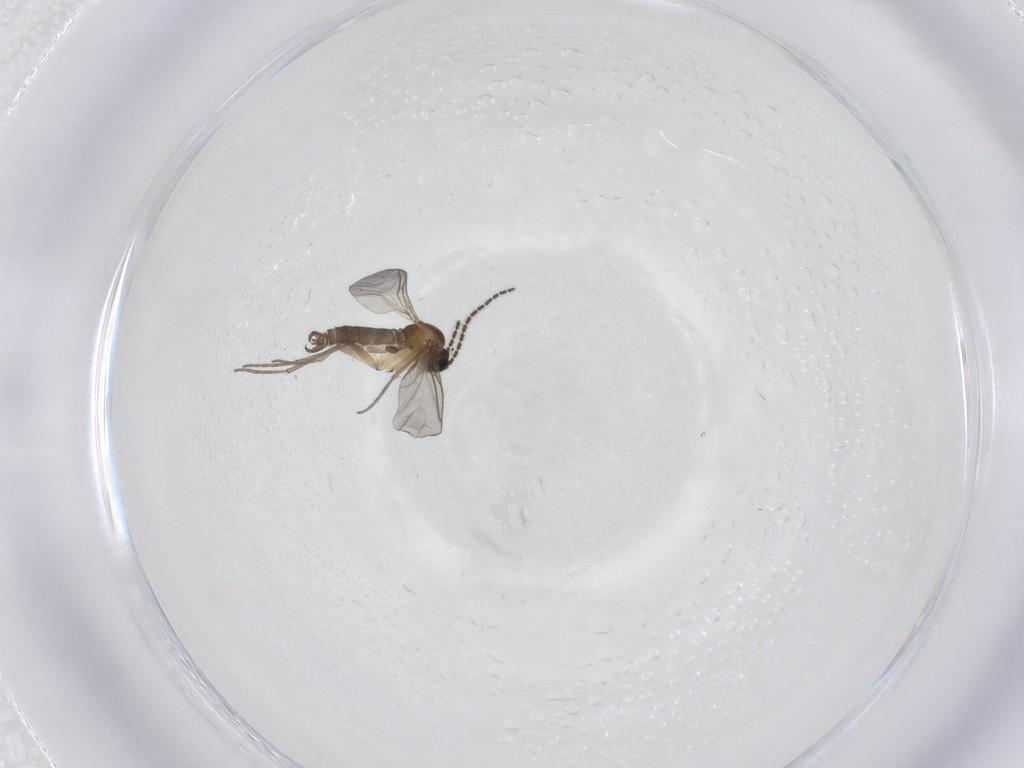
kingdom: Animalia
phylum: Arthropoda
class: Insecta
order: Diptera
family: Sciaridae
